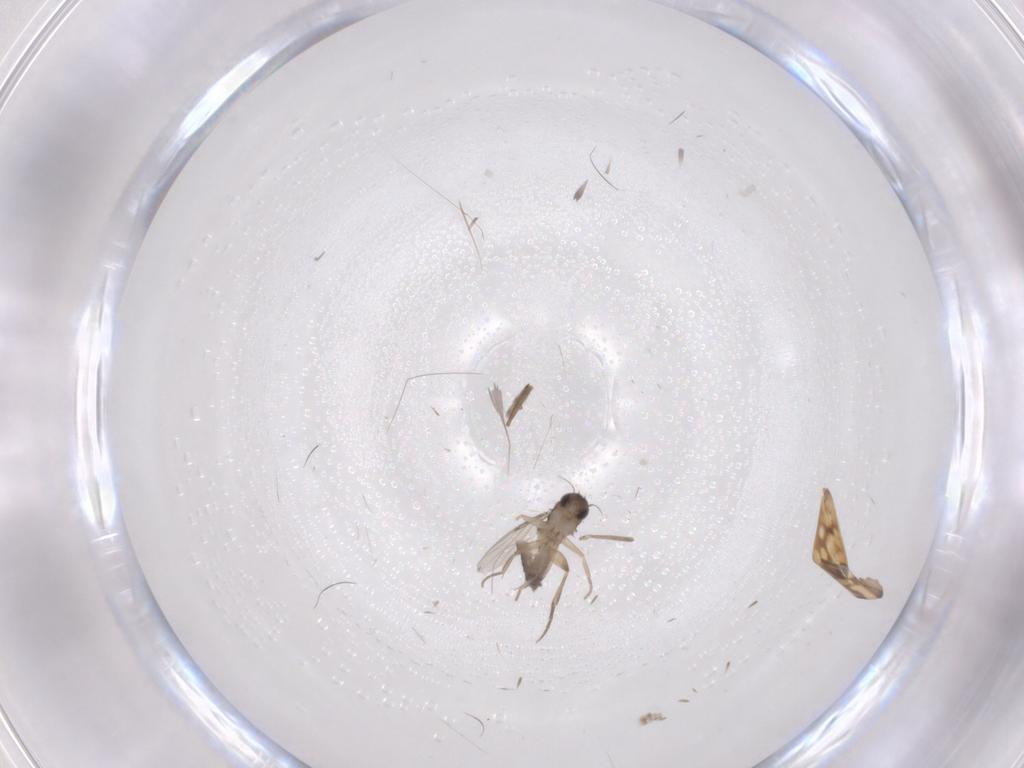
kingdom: Animalia
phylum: Arthropoda
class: Insecta
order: Diptera
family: Phoridae
